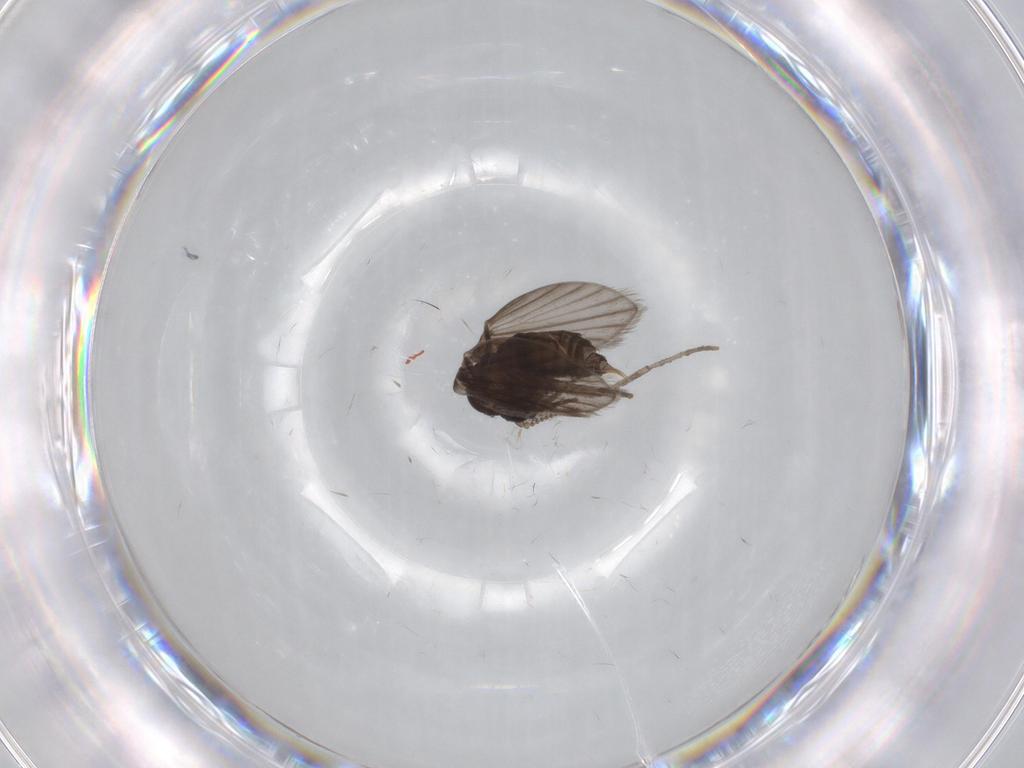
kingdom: Animalia
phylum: Arthropoda
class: Insecta
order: Diptera
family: Psychodidae
